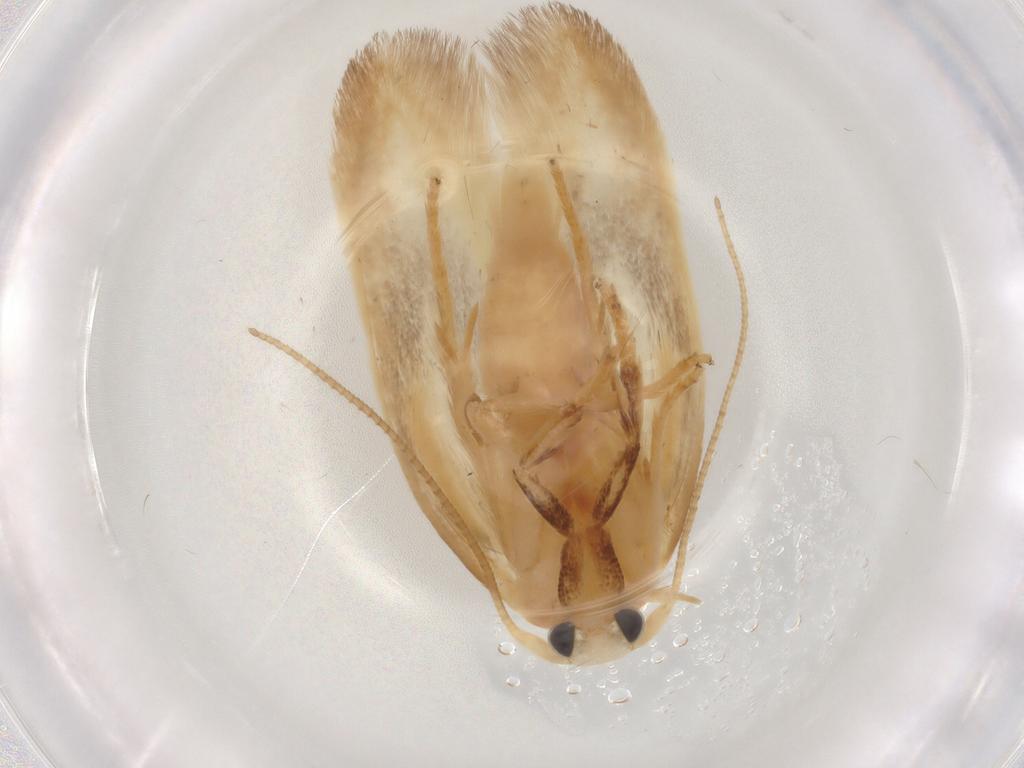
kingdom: Animalia
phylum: Arthropoda
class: Insecta
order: Lepidoptera
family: Geometridae
